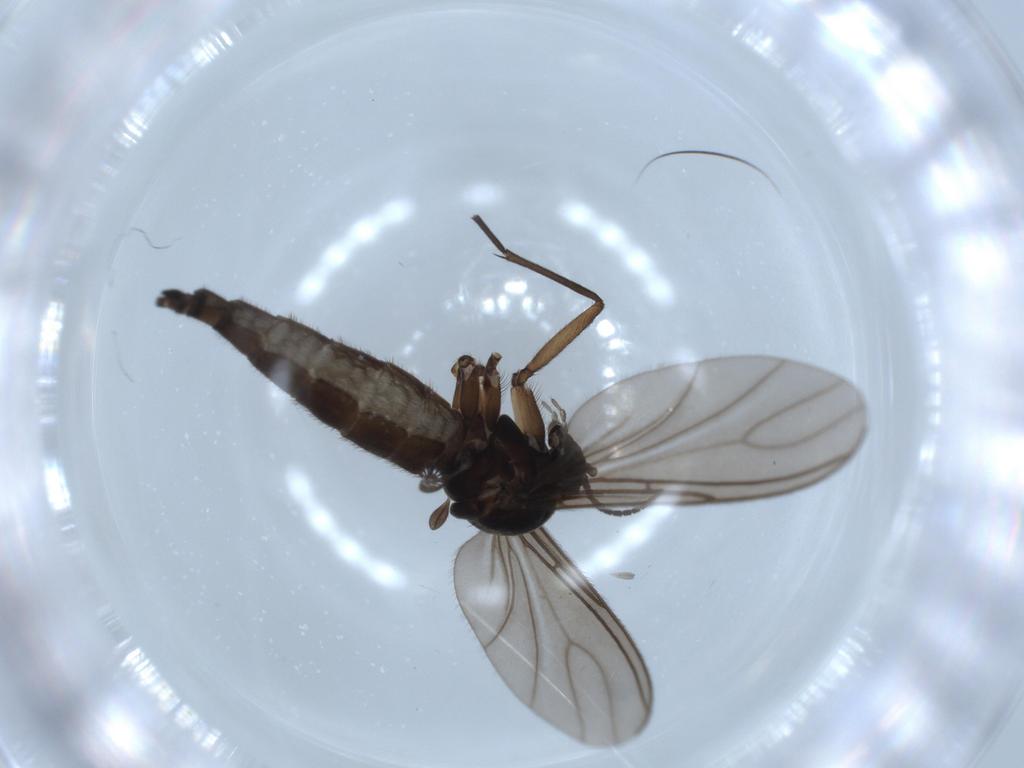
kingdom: Animalia
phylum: Arthropoda
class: Insecta
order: Diptera
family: Sciaridae
